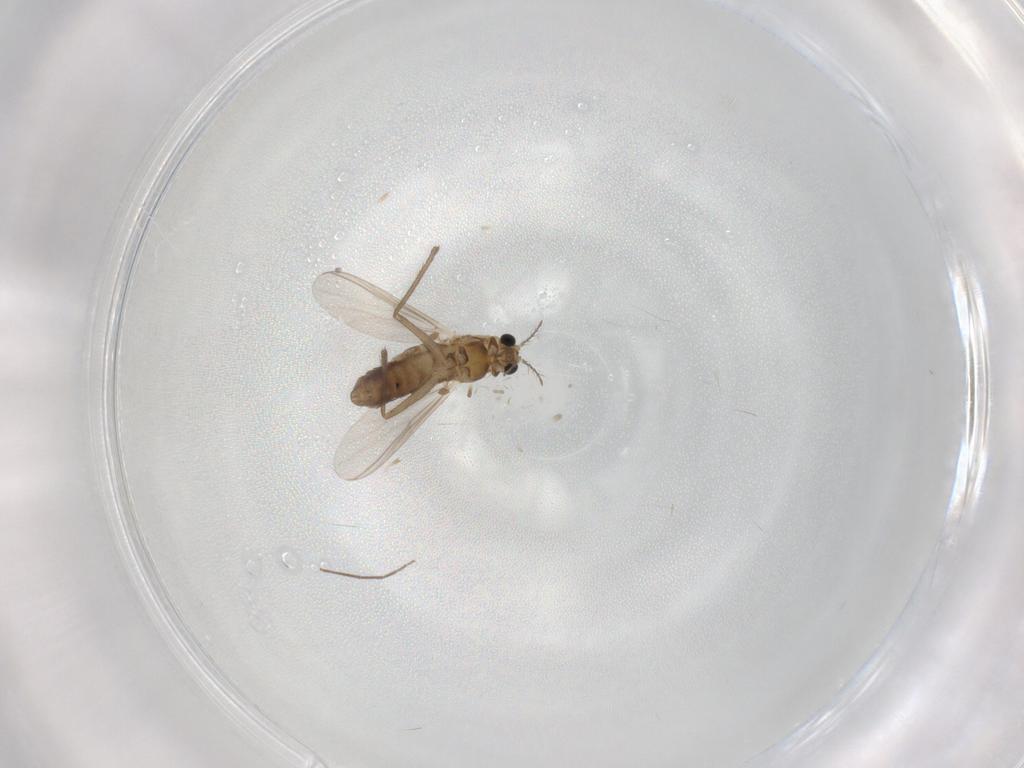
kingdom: Animalia
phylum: Arthropoda
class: Insecta
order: Diptera
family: Chironomidae
